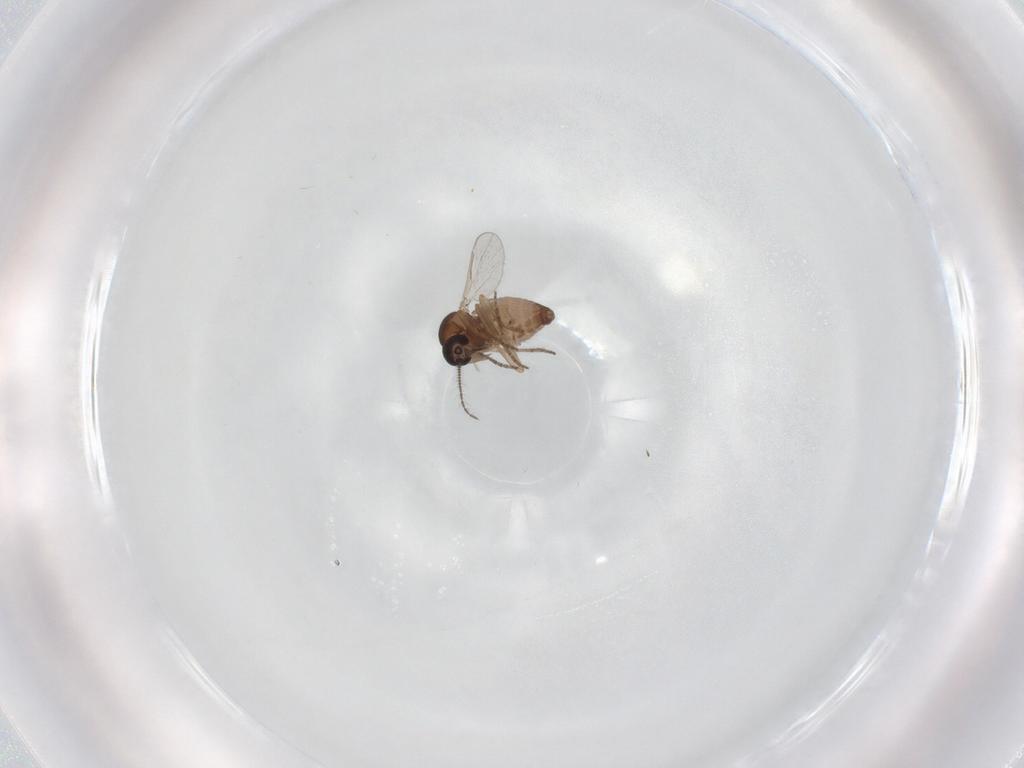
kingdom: Animalia
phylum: Arthropoda
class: Insecta
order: Diptera
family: Ceratopogonidae
